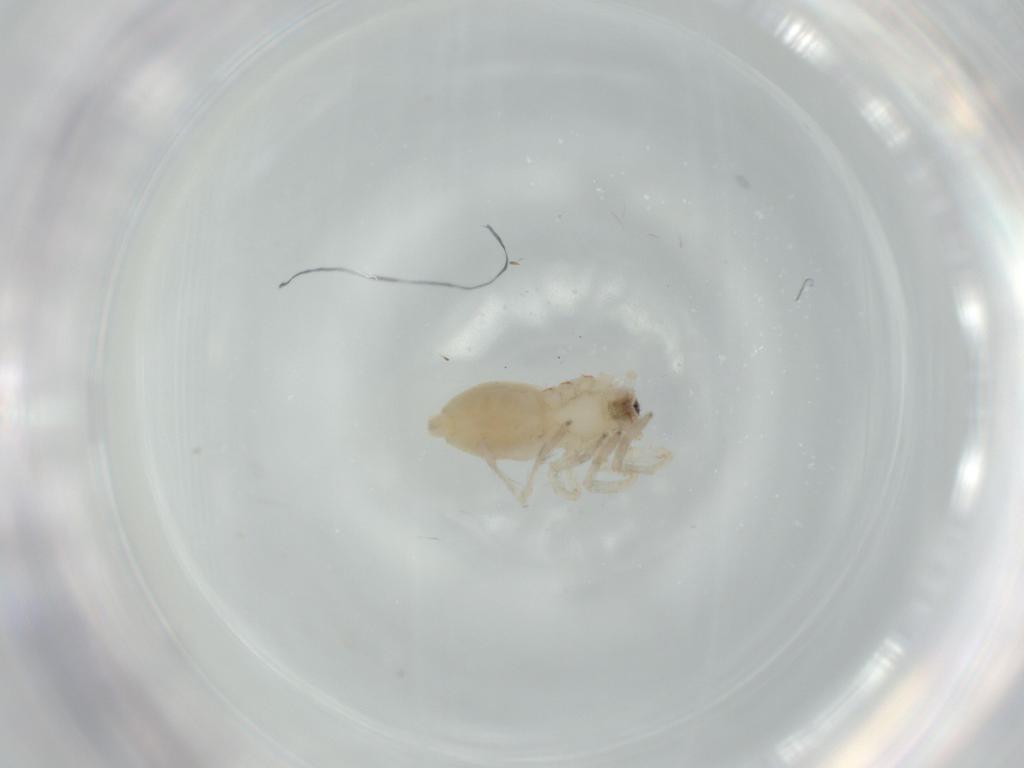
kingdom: Animalia
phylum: Arthropoda
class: Arachnida
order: Araneae
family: Amaurobiidae
